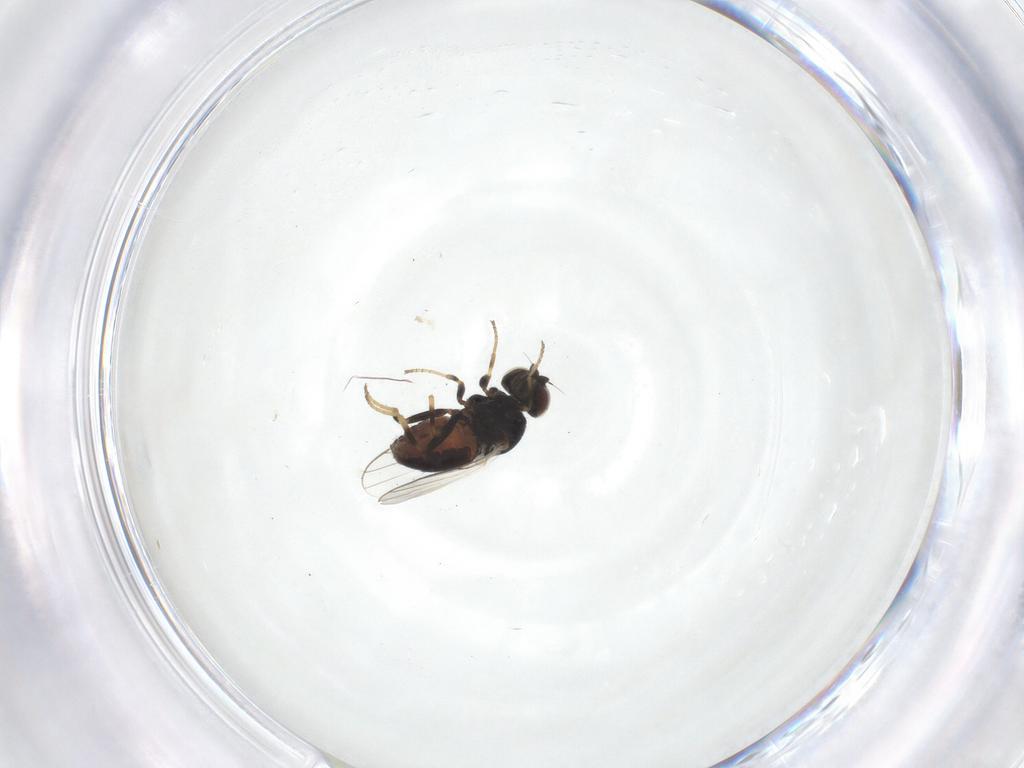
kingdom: Animalia
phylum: Arthropoda
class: Insecta
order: Diptera
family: Chloropidae
